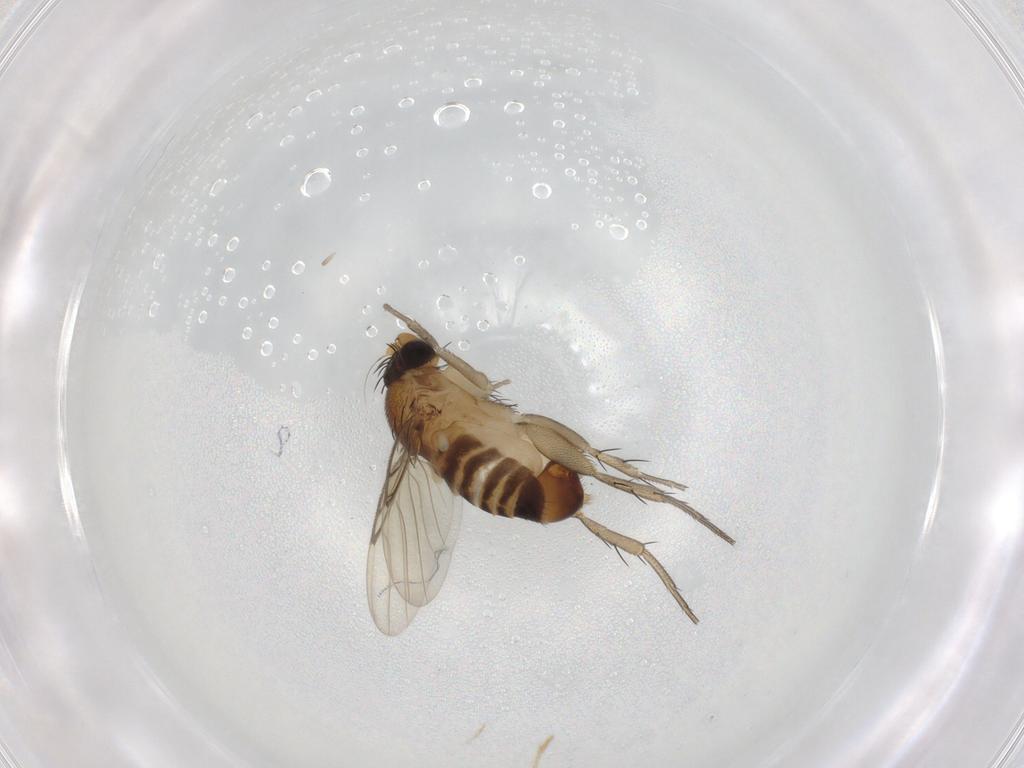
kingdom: Animalia
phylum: Arthropoda
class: Insecta
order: Diptera
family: Phoridae
